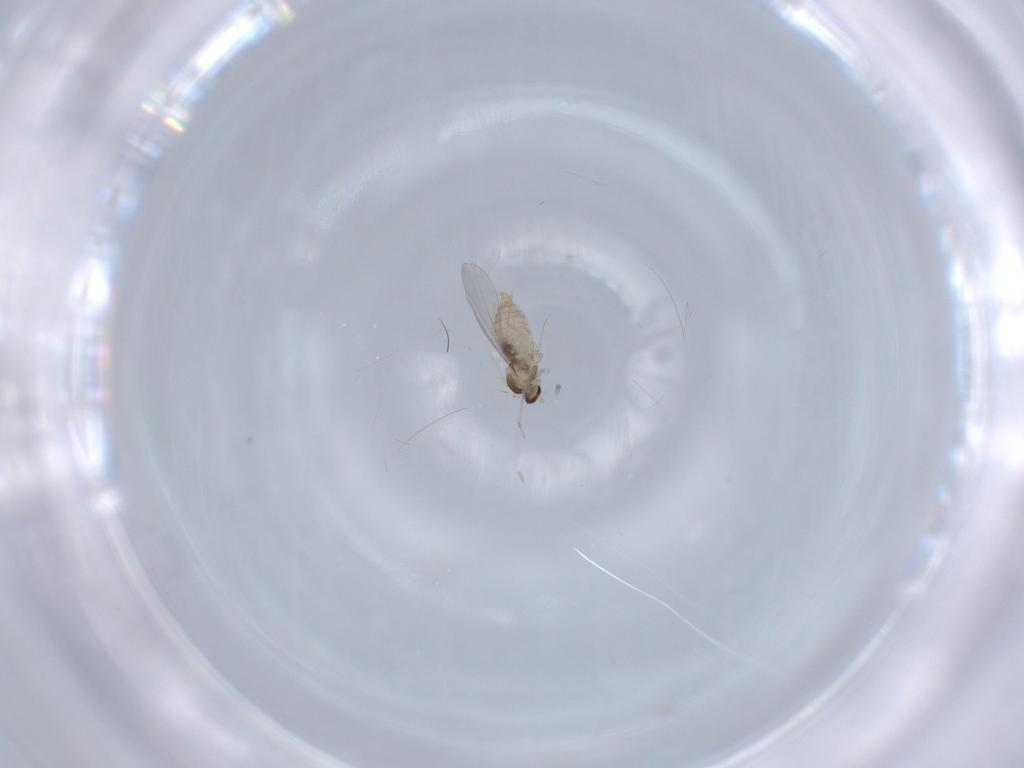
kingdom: Animalia
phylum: Arthropoda
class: Insecta
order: Diptera
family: Cecidomyiidae
